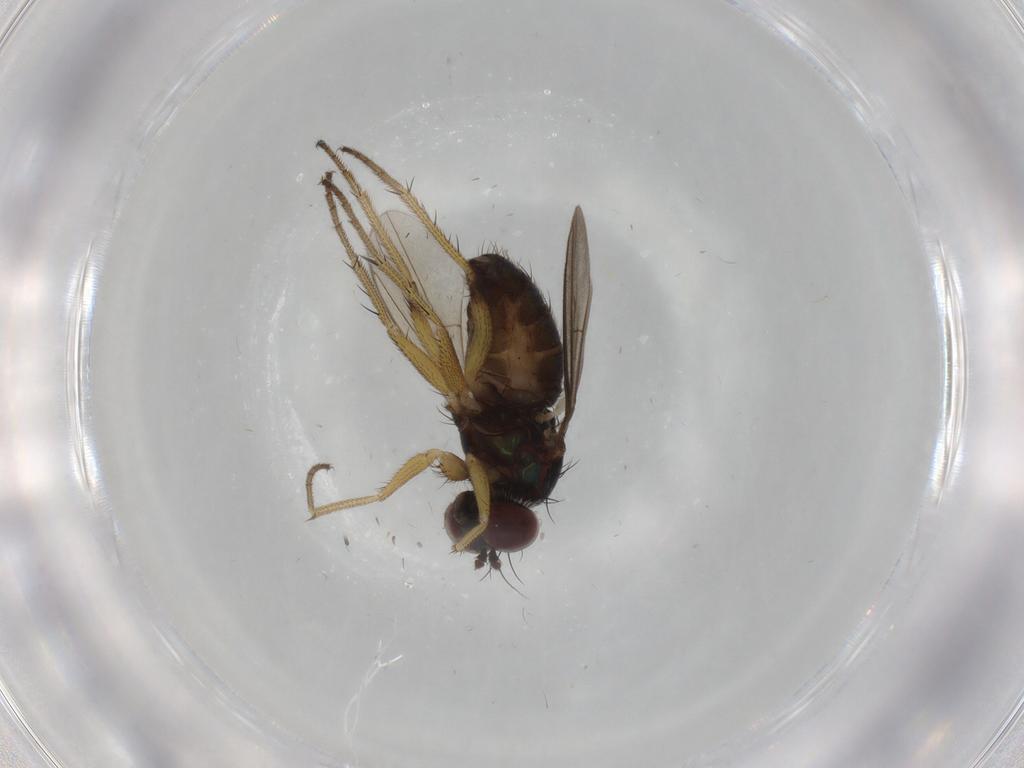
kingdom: Animalia
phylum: Arthropoda
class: Insecta
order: Diptera
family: Dolichopodidae
